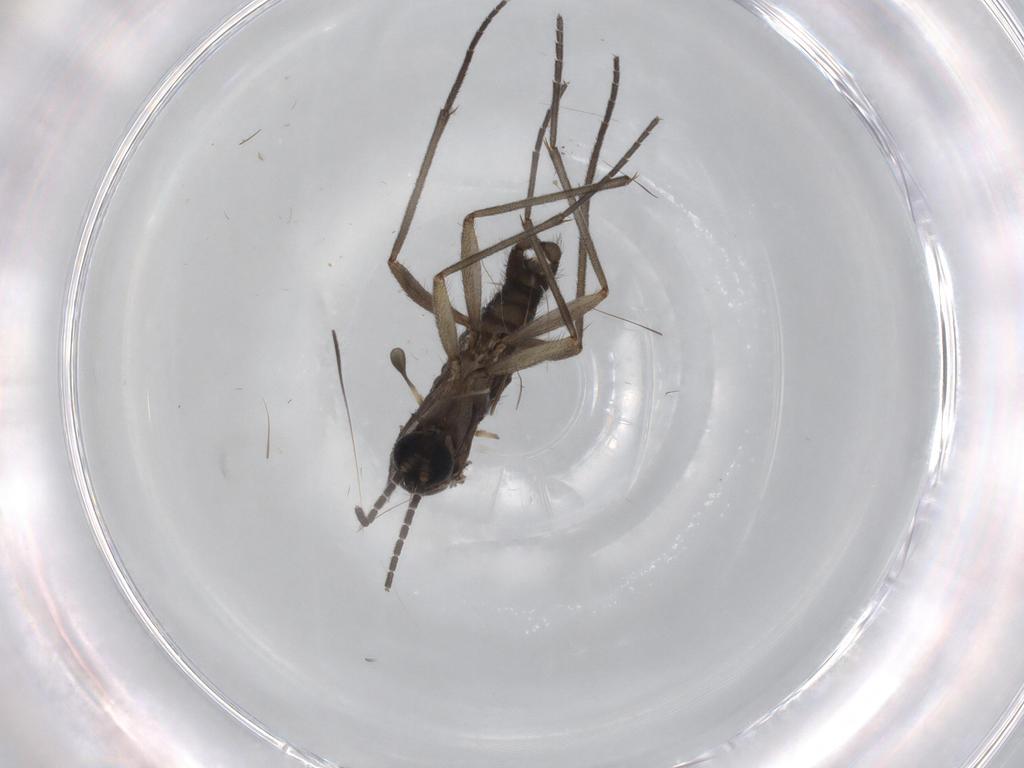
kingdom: Animalia
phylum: Arthropoda
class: Insecta
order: Diptera
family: Sciaridae
